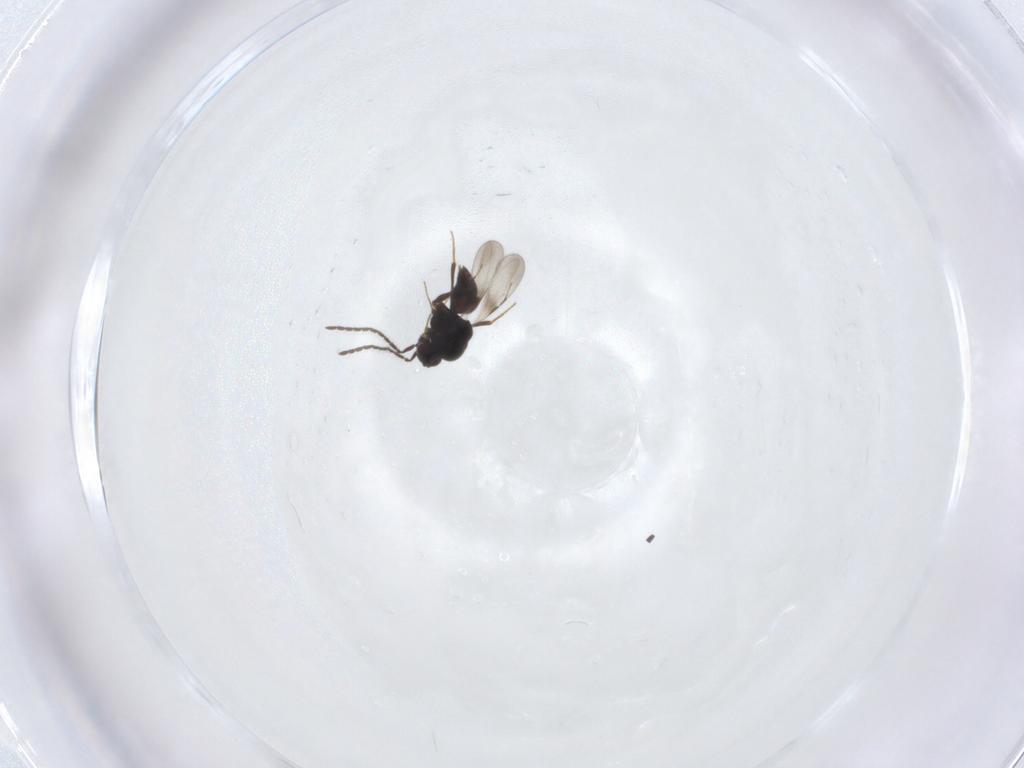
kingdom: Animalia
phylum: Arthropoda
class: Insecta
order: Hymenoptera
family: Ceraphronidae
